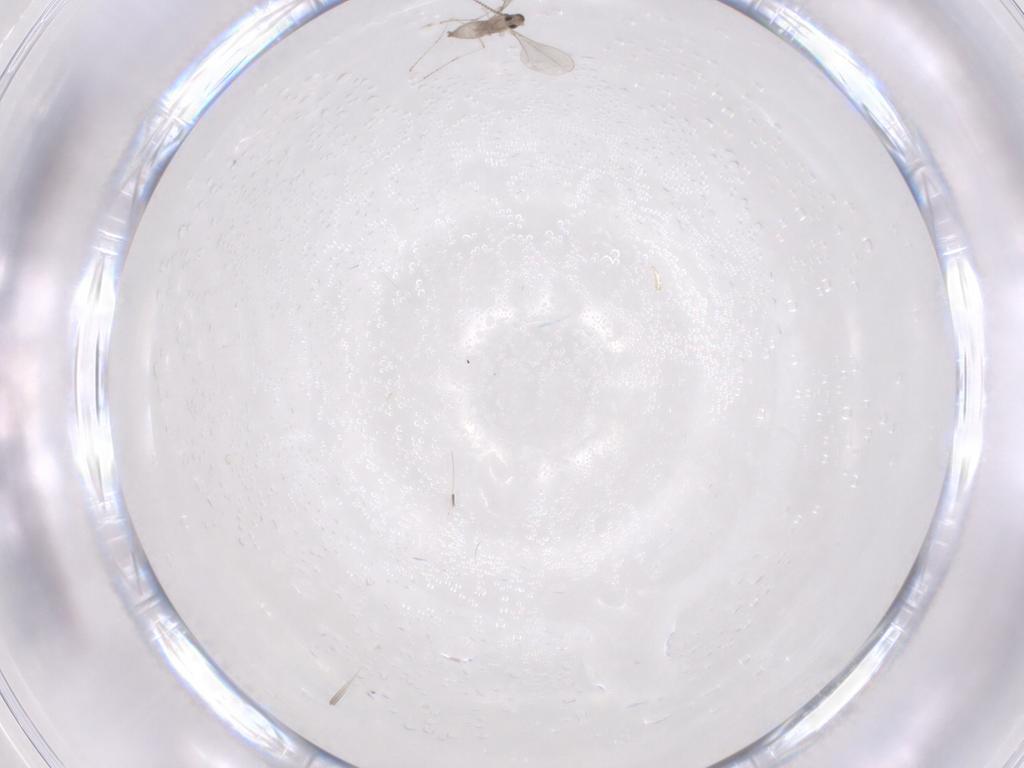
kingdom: Animalia
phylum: Arthropoda
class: Insecta
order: Diptera
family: Cecidomyiidae
